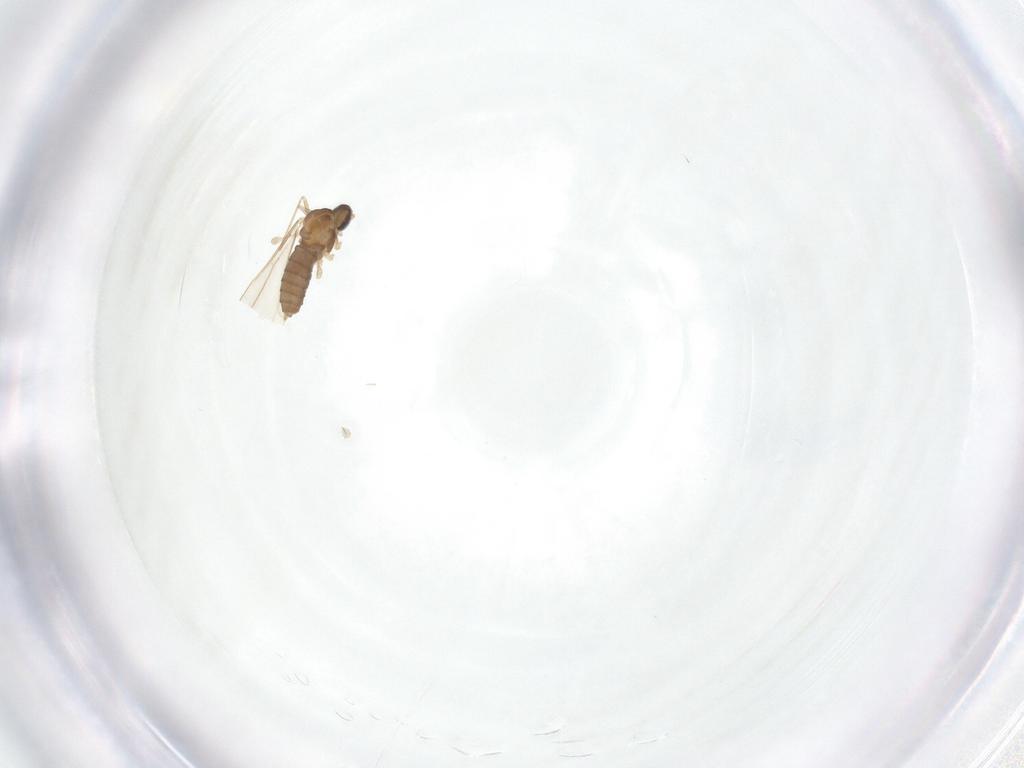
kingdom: Animalia
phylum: Arthropoda
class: Insecta
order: Diptera
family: Cecidomyiidae
